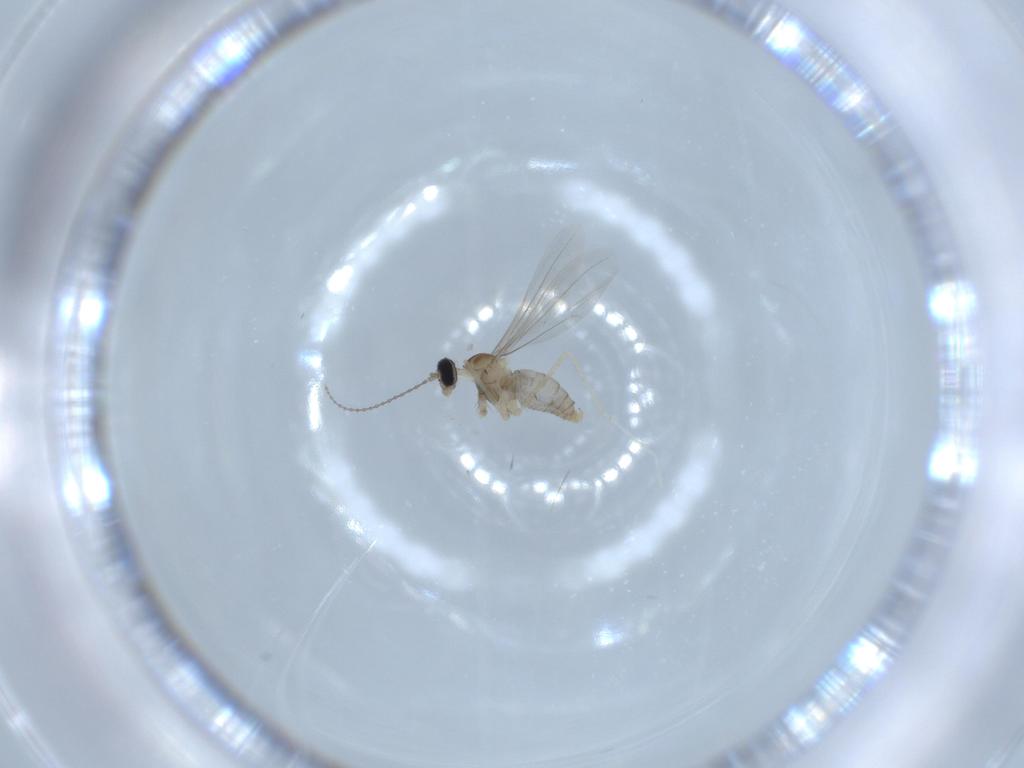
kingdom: Animalia
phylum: Arthropoda
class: Insecta
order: Diptera
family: Cecidomyiidae
